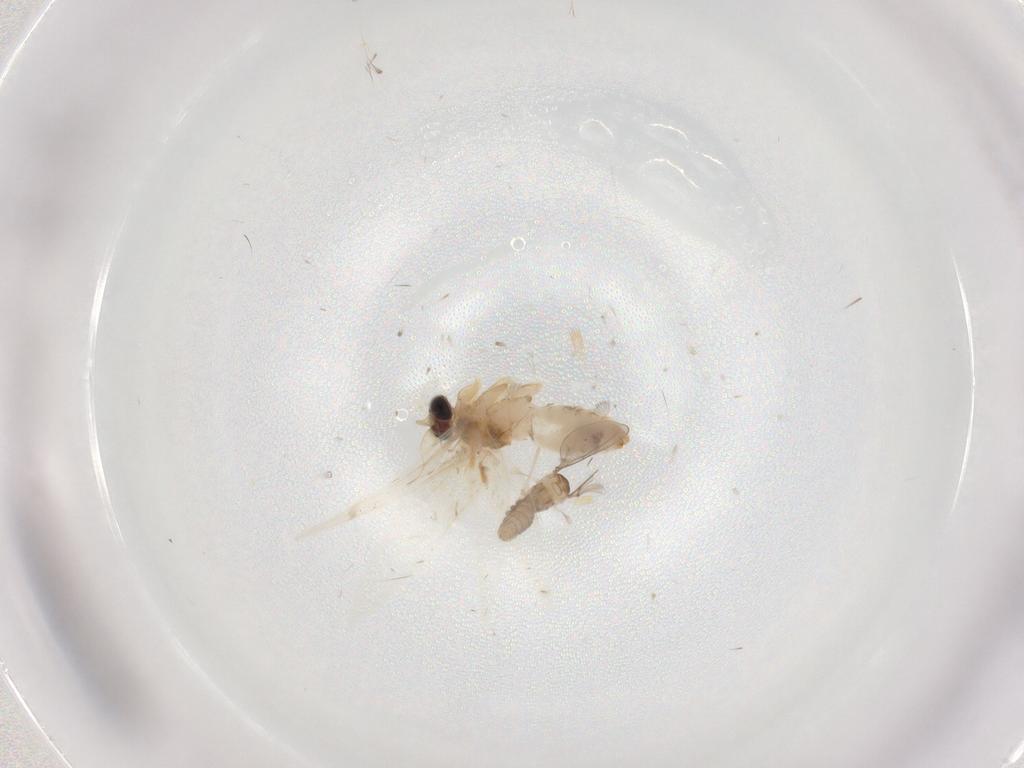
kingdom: Animalia
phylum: Arthropoda
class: Insecta
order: Lepidoptera
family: Nepticulidae
